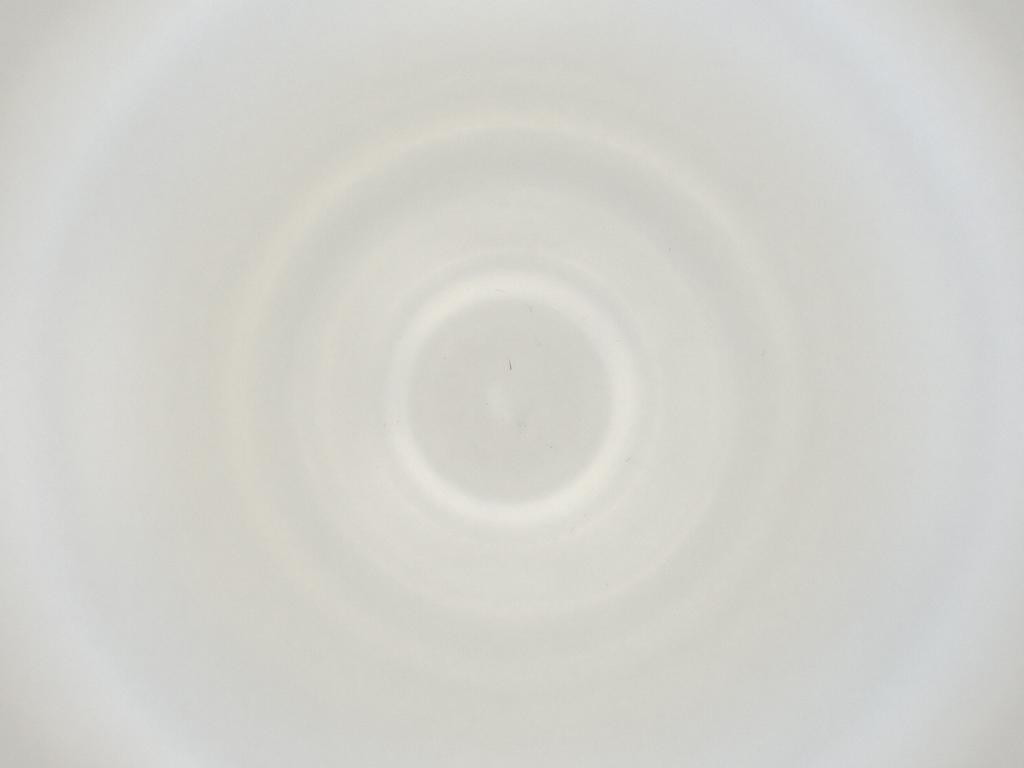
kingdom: Animalia
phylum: Arthropoda
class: Insecta
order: Diptera
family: Cecidomyiidae
